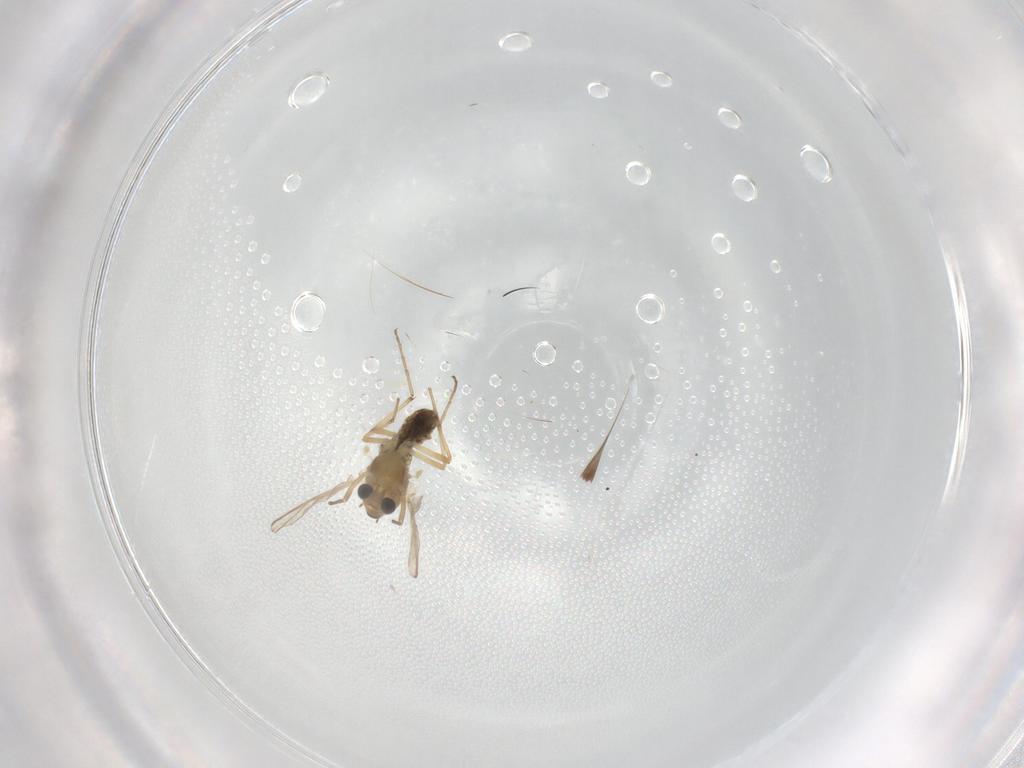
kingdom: Animalia
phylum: Arthropoda
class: Insecta
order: Diptera
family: Chironomidae
